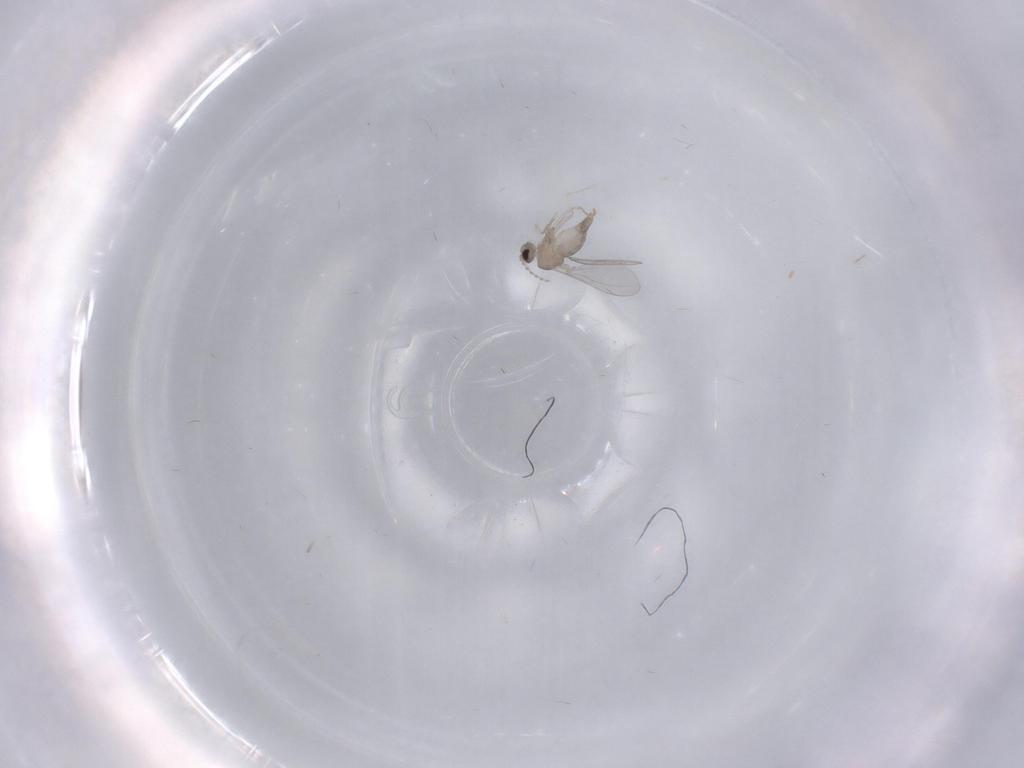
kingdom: Animalia
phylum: Arthropoda
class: Insecta
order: Diptera
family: Cecidomyiidae
